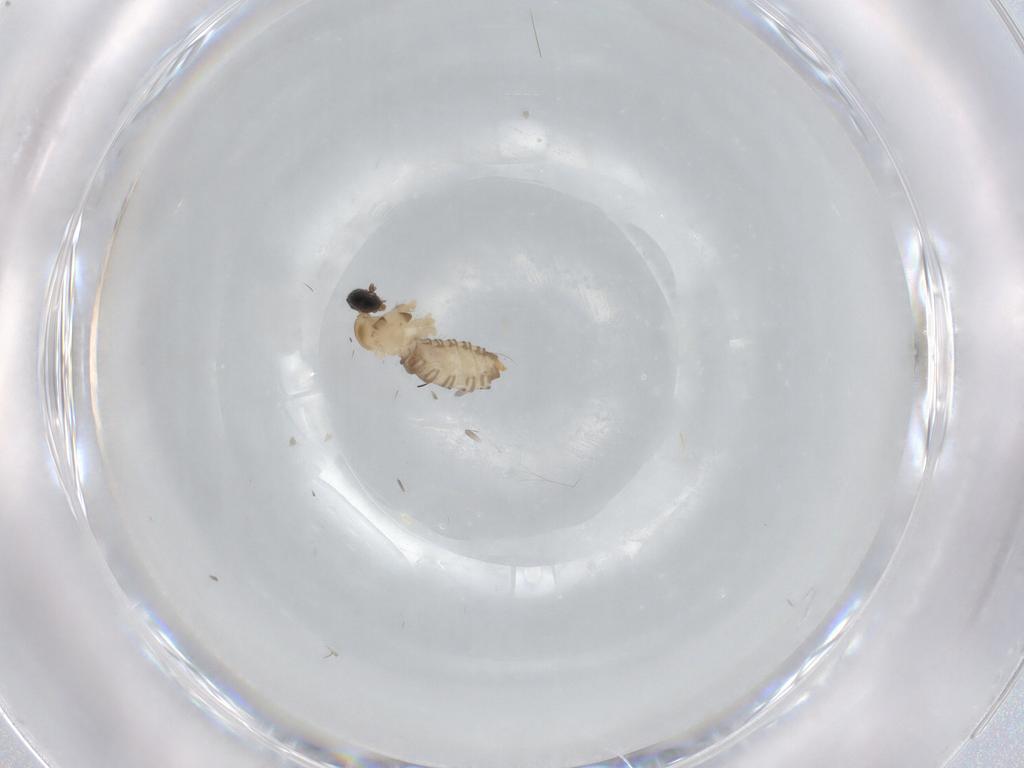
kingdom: Animalia
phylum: Arthropoda
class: Insecta
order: Diptera
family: Cecidomyiidae
